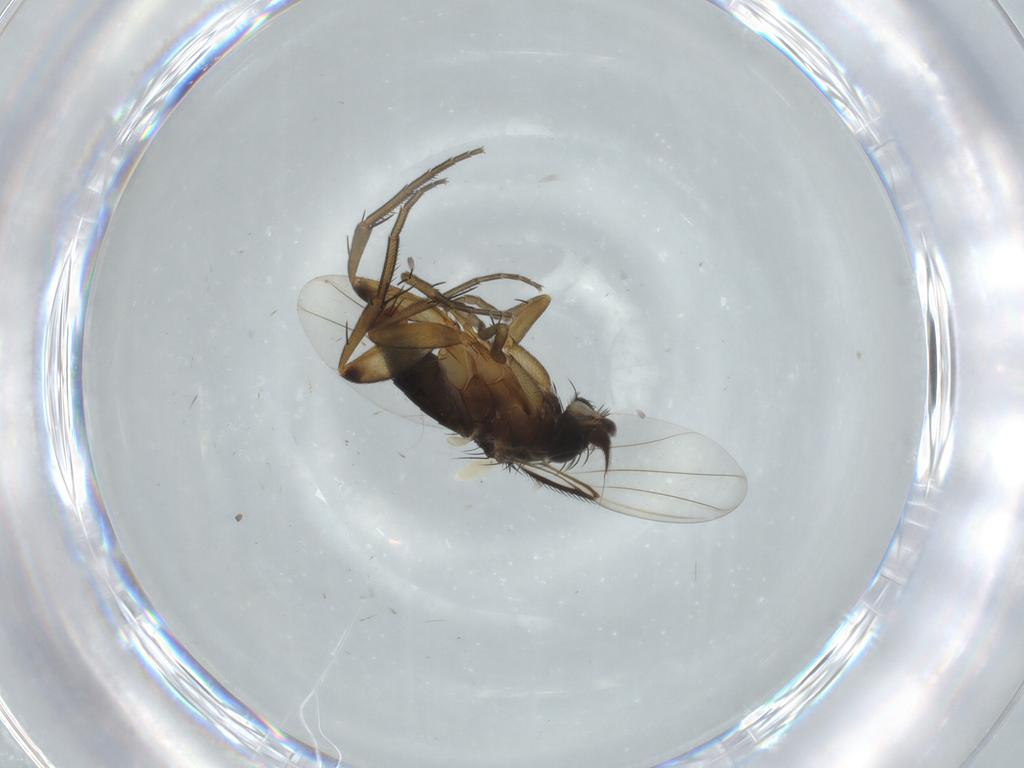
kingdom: Animalia
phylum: Arthropoda
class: Insecta
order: Diptera
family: Phoridae
